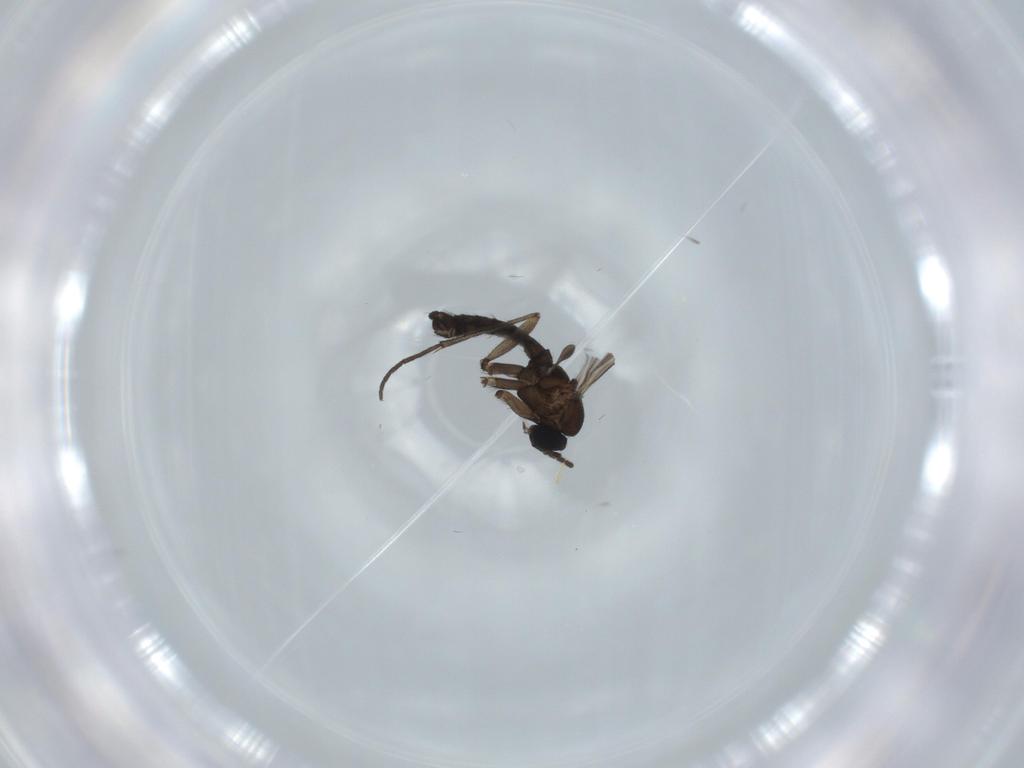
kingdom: Animalia
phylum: Arthropoda
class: Insecta
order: Diptera
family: Sciaridae
